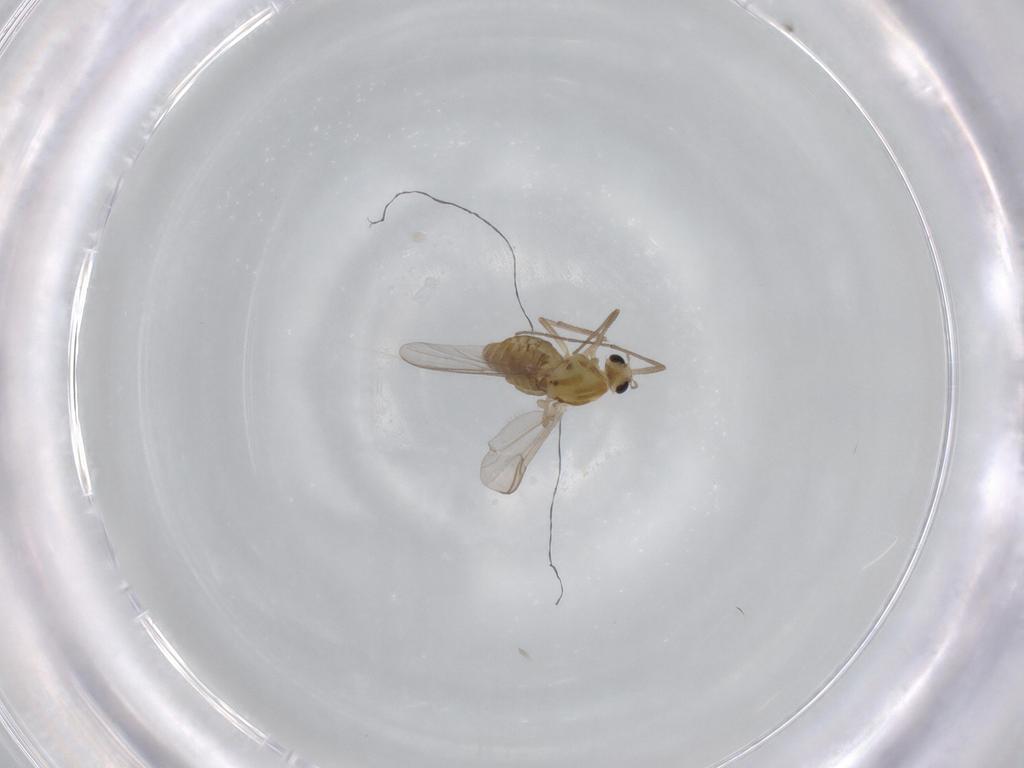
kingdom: Animalia
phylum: Arthropoda
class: Insecta
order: Diptera
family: Chironomidae
